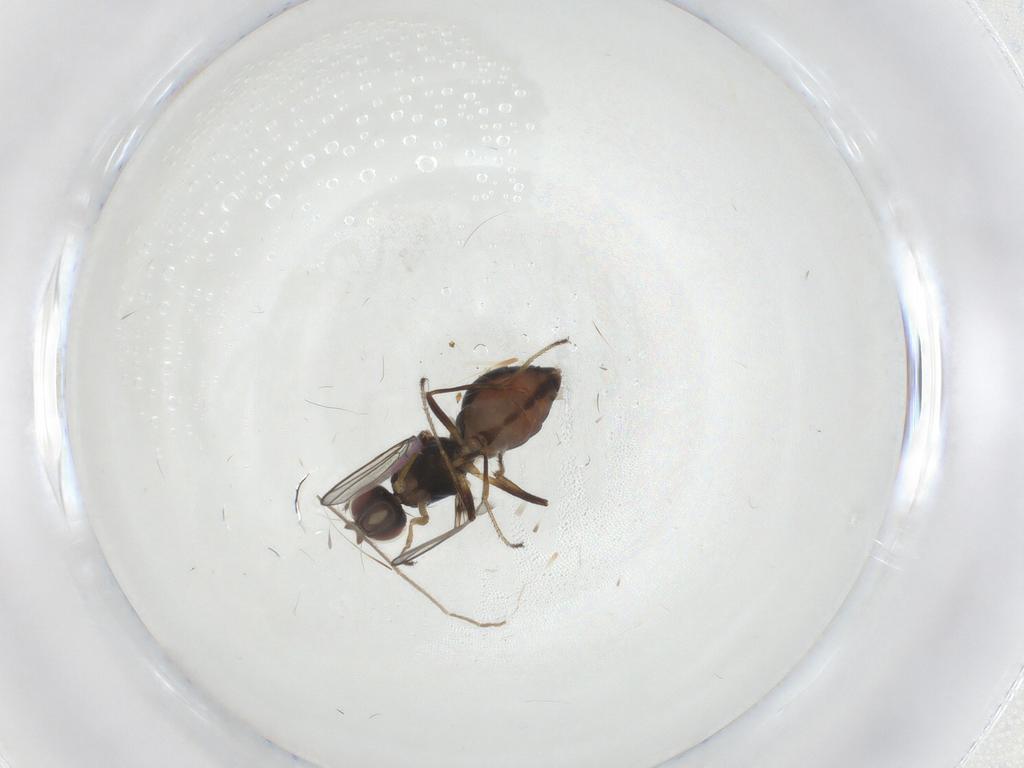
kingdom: Animalia
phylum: Arthropoda
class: Insecta
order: Diptera
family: Sepsidae
